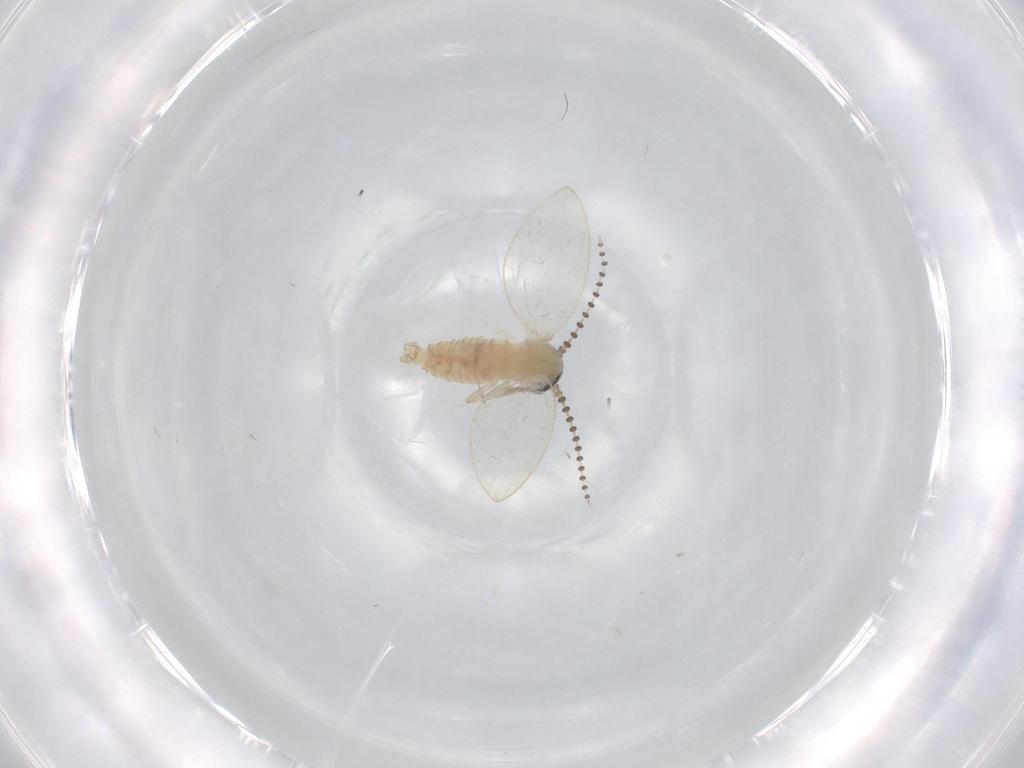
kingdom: Animalia
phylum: Arthropoda
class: Insecta
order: Diptera
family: Psychodidae
